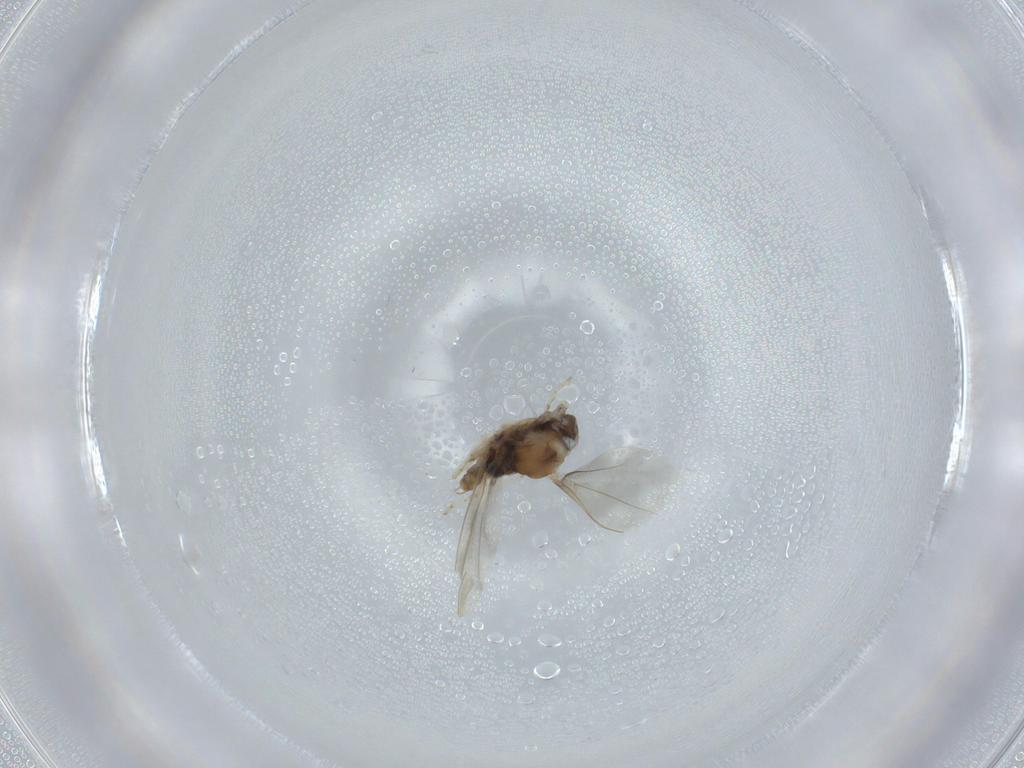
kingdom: Animalia
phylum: Arthropoda
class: Insecta
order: Diptera
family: Cecidomyiidae
